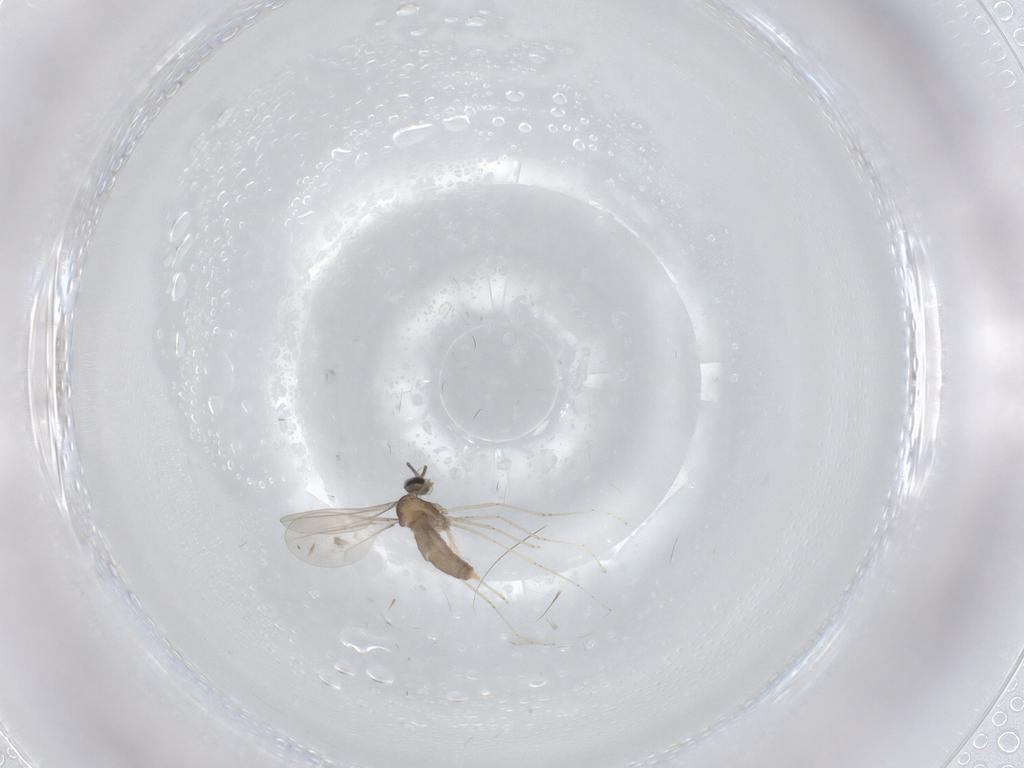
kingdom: Animalia
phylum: Arthropoda
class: Insecta
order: Diptera
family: Cecidomyiidae
